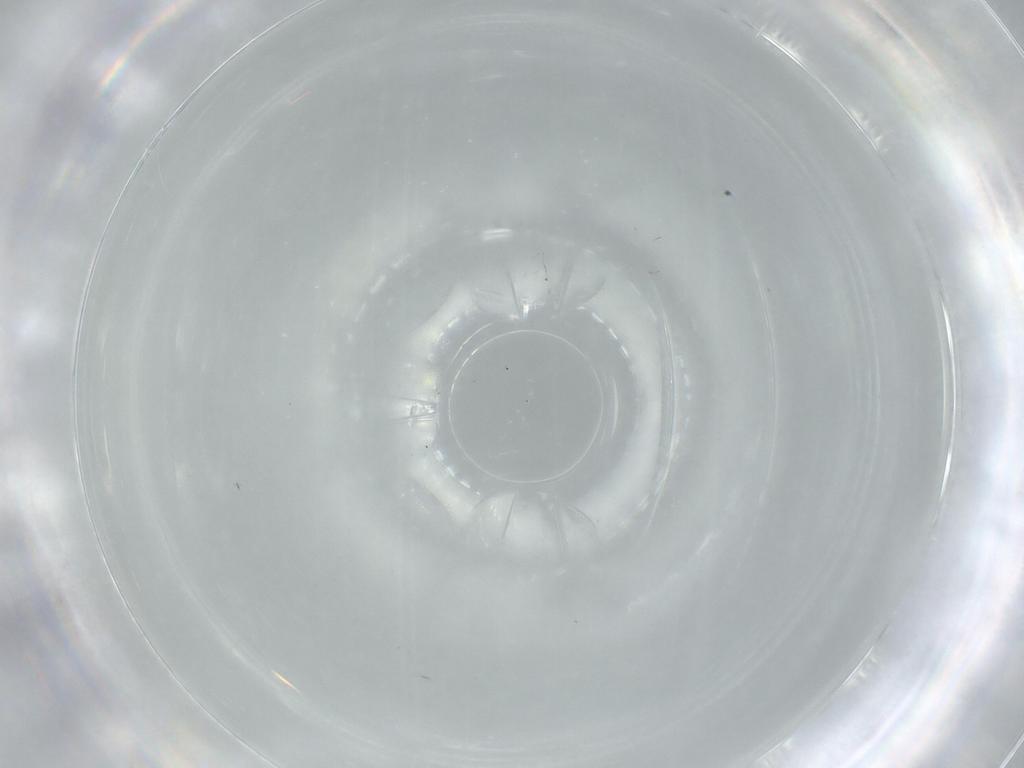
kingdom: Animalia
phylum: Arthropoda
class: Insecta
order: Diptera
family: Cecidomyiidae
